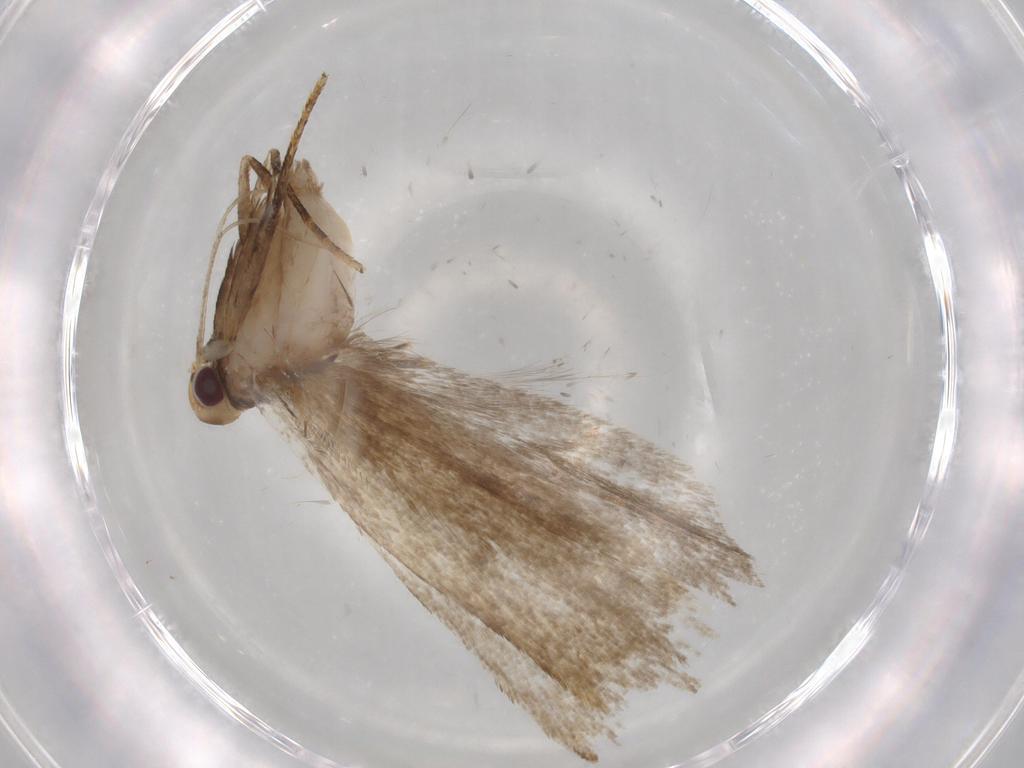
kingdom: Animalia
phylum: Arthropoda
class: Insecta
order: Lepidoptera
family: Gelechiidae
